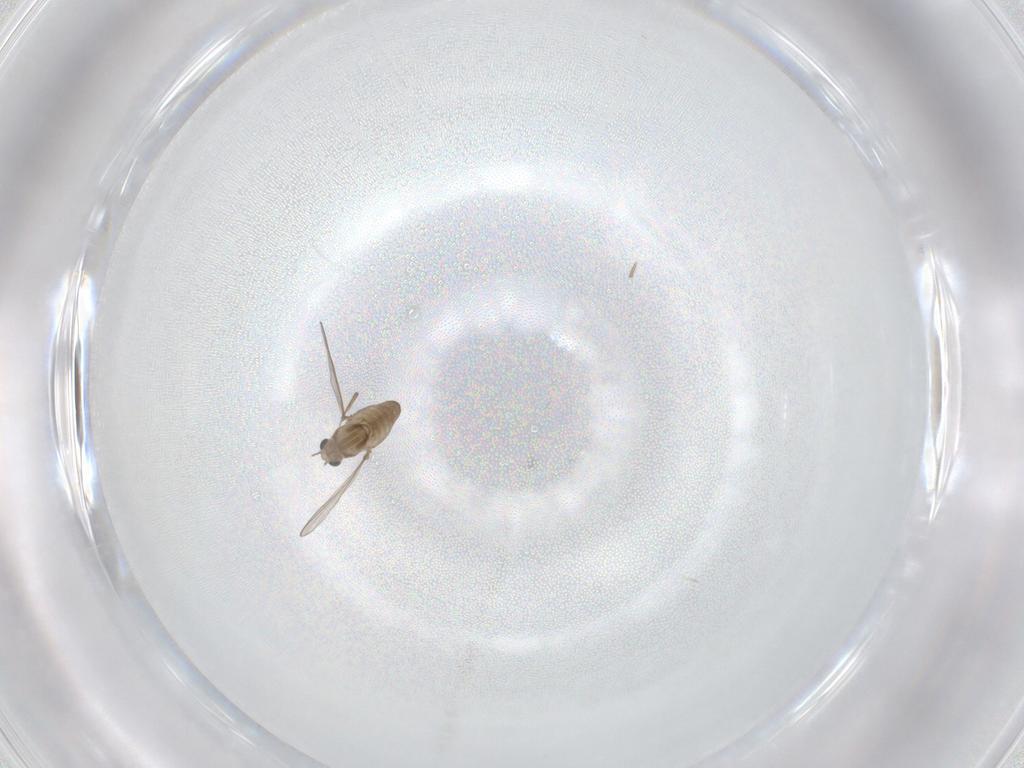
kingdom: Animalia
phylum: Arthropoda
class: Insecta
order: Diptera
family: Chironomidae
